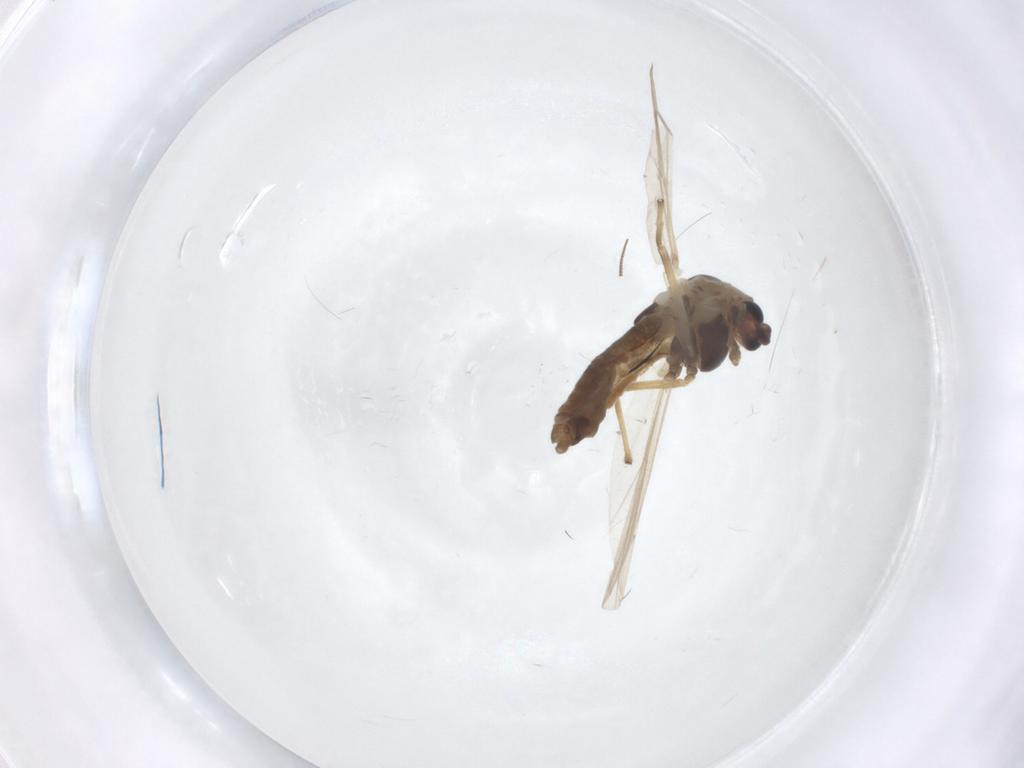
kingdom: Animalia
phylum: Arthropoda
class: Insecta
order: Diptera
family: Chironomidae
